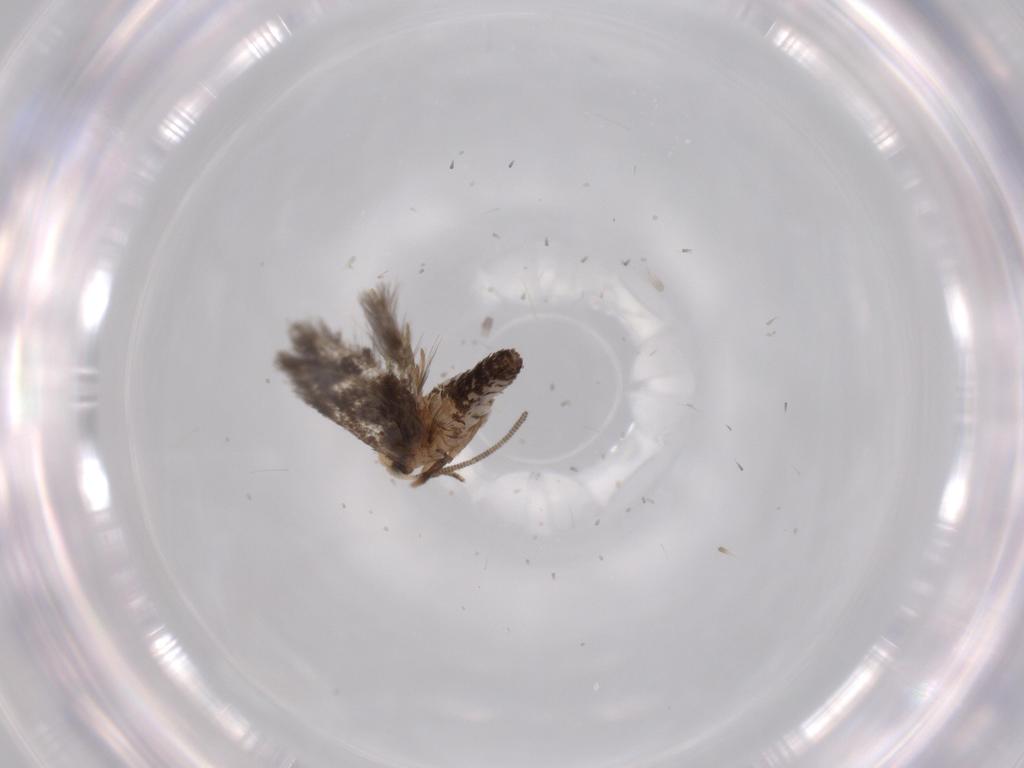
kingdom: Animalia
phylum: Arthropoda
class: Insecta
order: Lepidoptera
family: Nepticulidae
